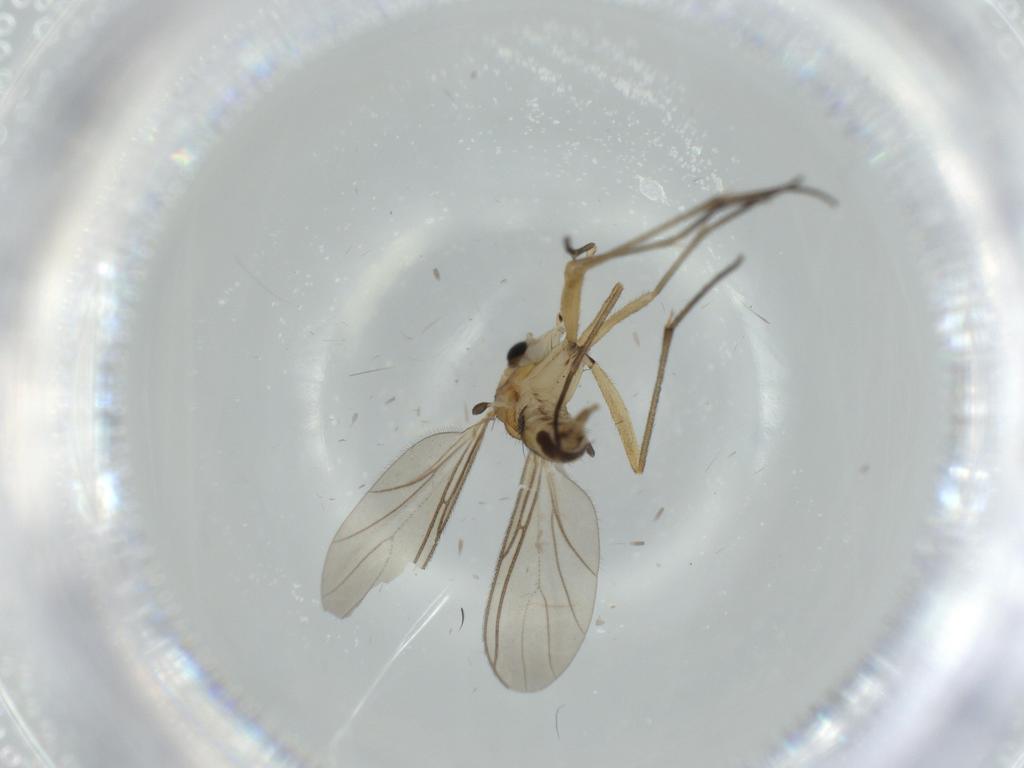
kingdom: Animalia
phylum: Arthropoda
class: Insecta
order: Diptera
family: Sciaridae
